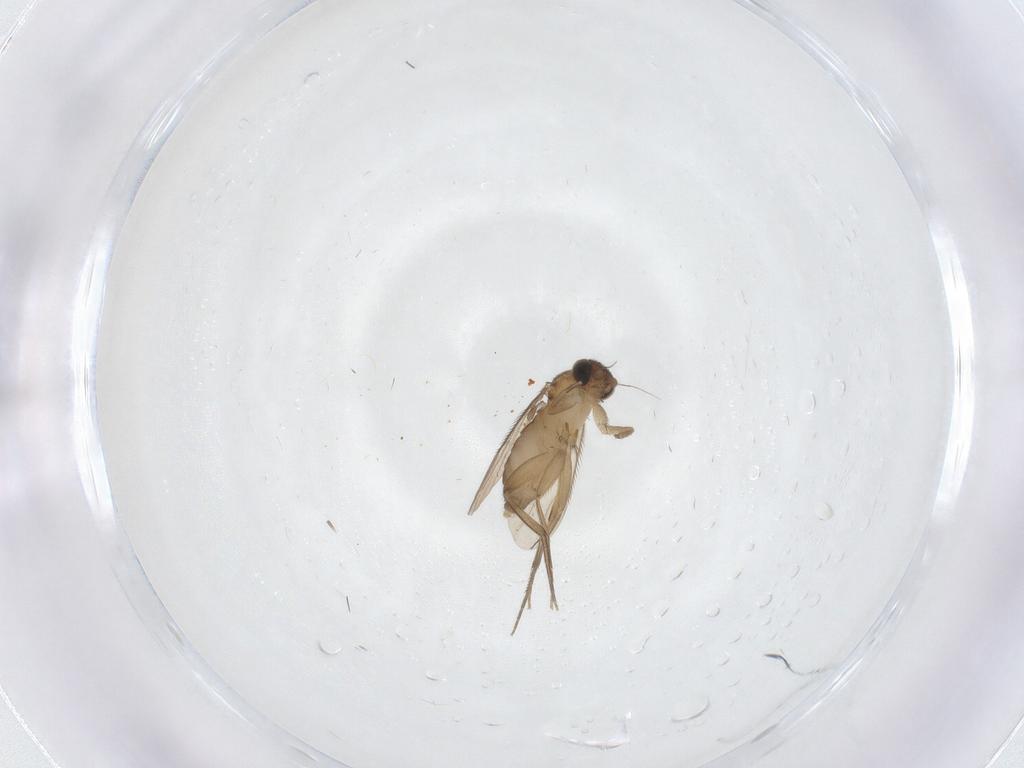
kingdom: Animalia
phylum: Arthropoda
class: Insecta
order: Diptera
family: Phoridae
